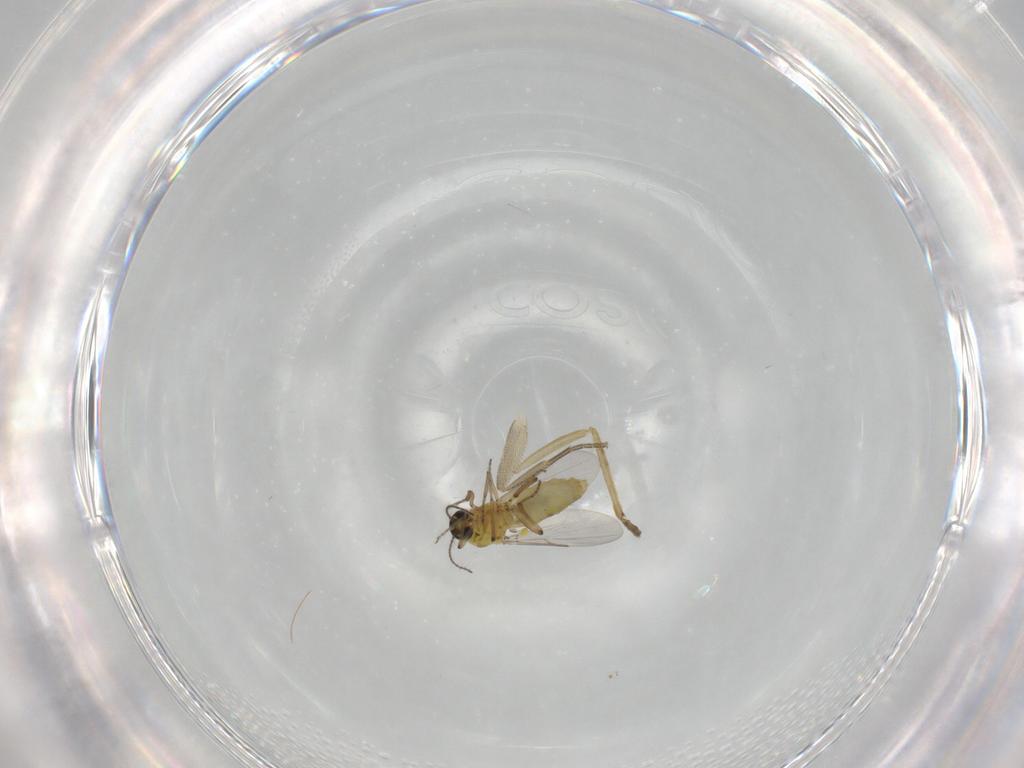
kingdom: Animalia
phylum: Arthropoda
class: Insecta
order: Diptera
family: Ceratopogonidae
